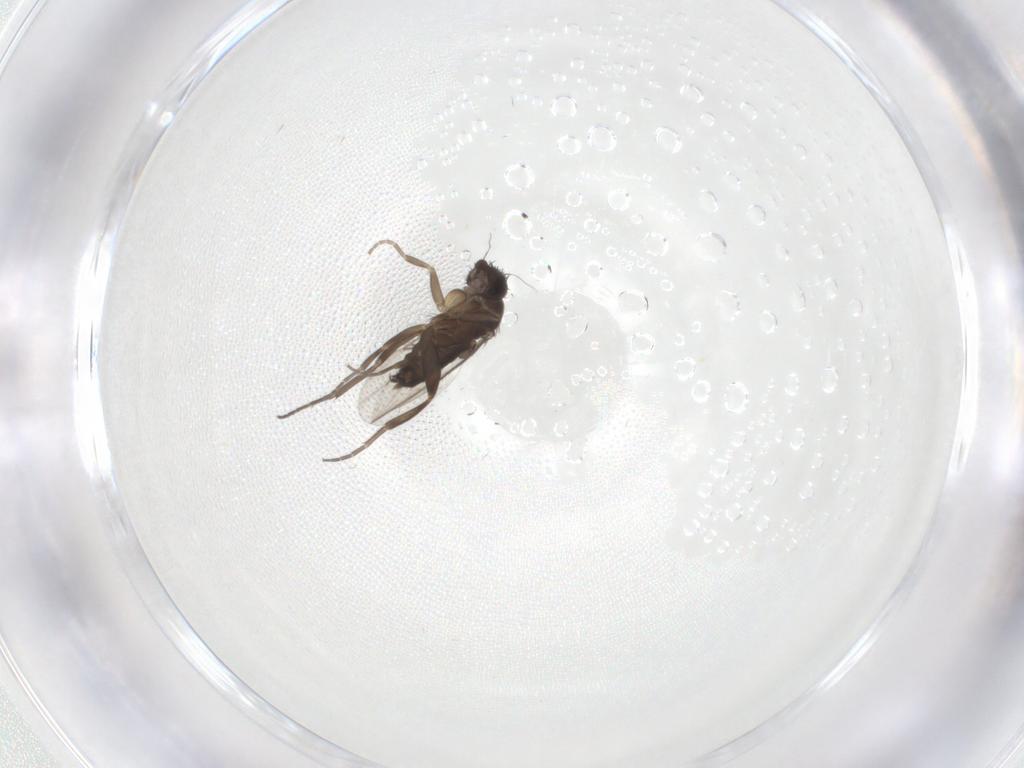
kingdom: Animalia
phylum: Arthropoda
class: Insecta
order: Diptera
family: Phoridae
